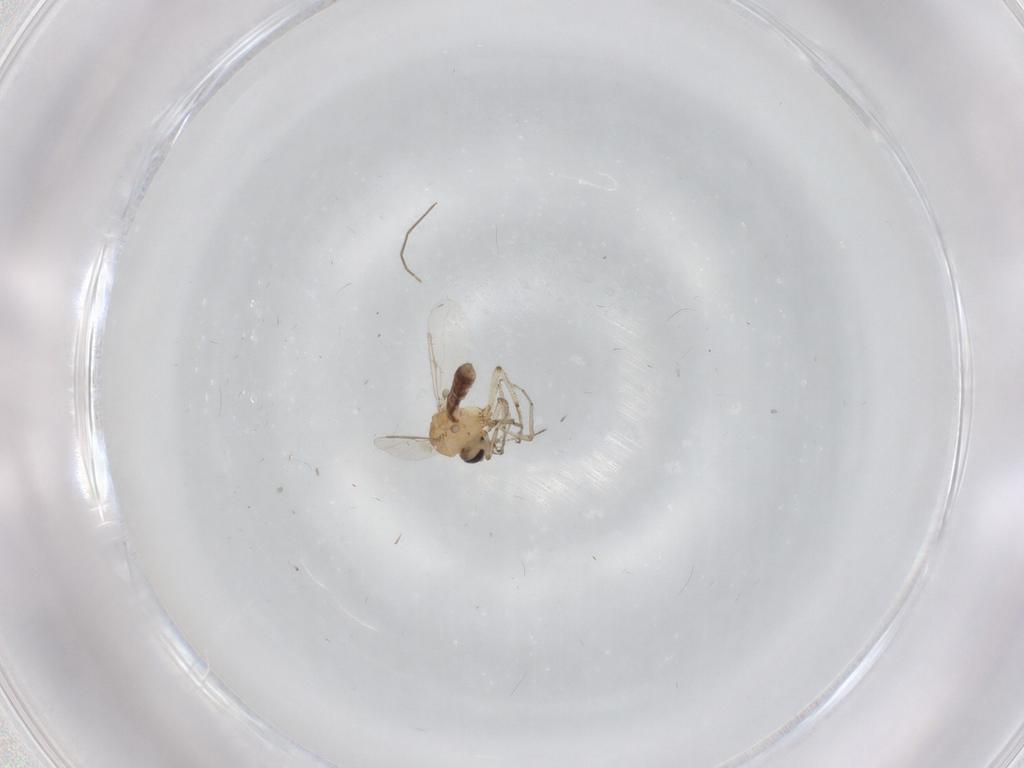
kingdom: Animalia
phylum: Arthropoda
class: Insecta
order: Diptera
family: Ceratopogonidae
